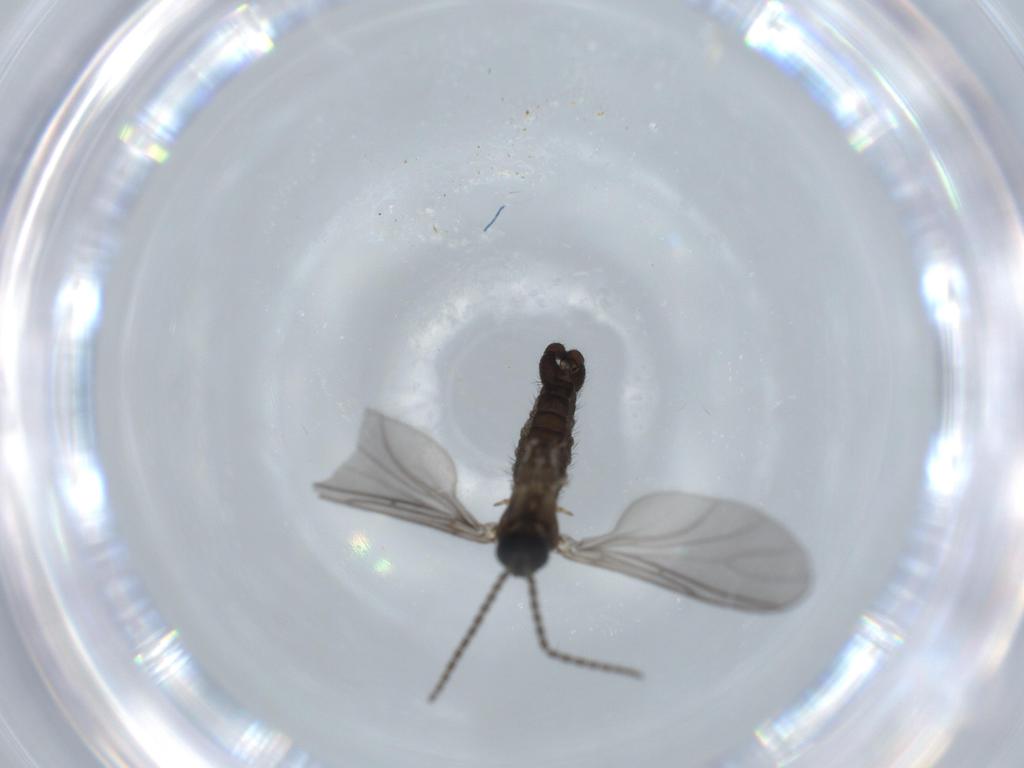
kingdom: Animalia
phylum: Arthropoda
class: Insecta
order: Diptera
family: Sciaridae
